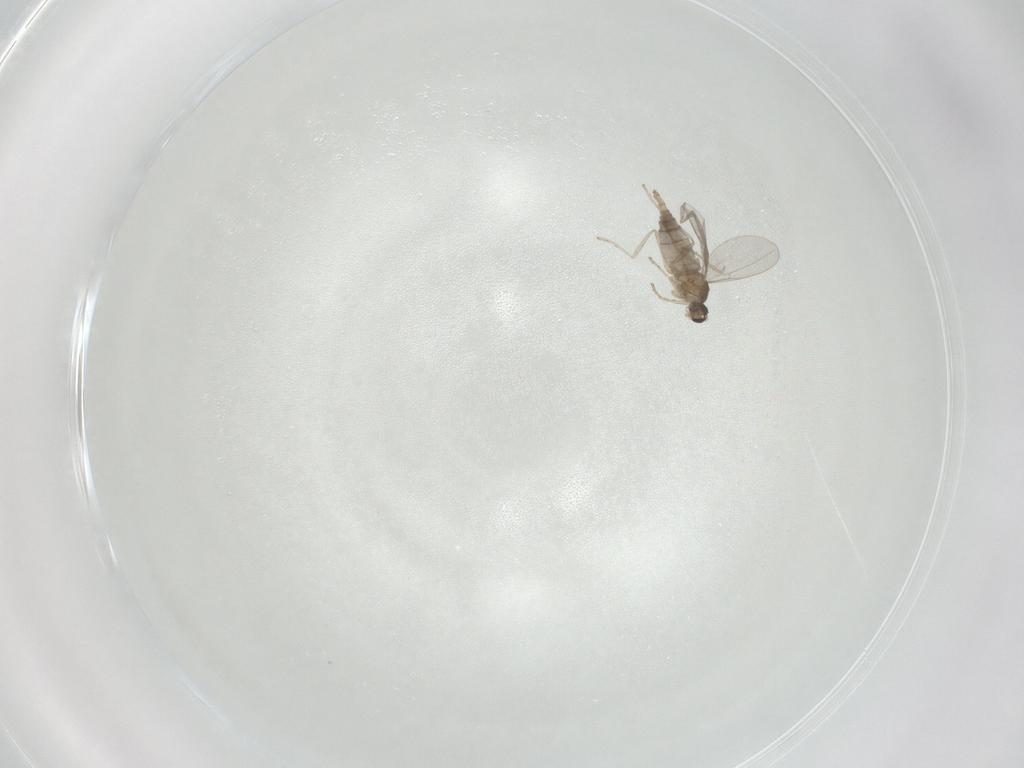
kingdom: Animalia
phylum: Arthropoda
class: Insecta
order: Diptera
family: Cecidomyiidae
